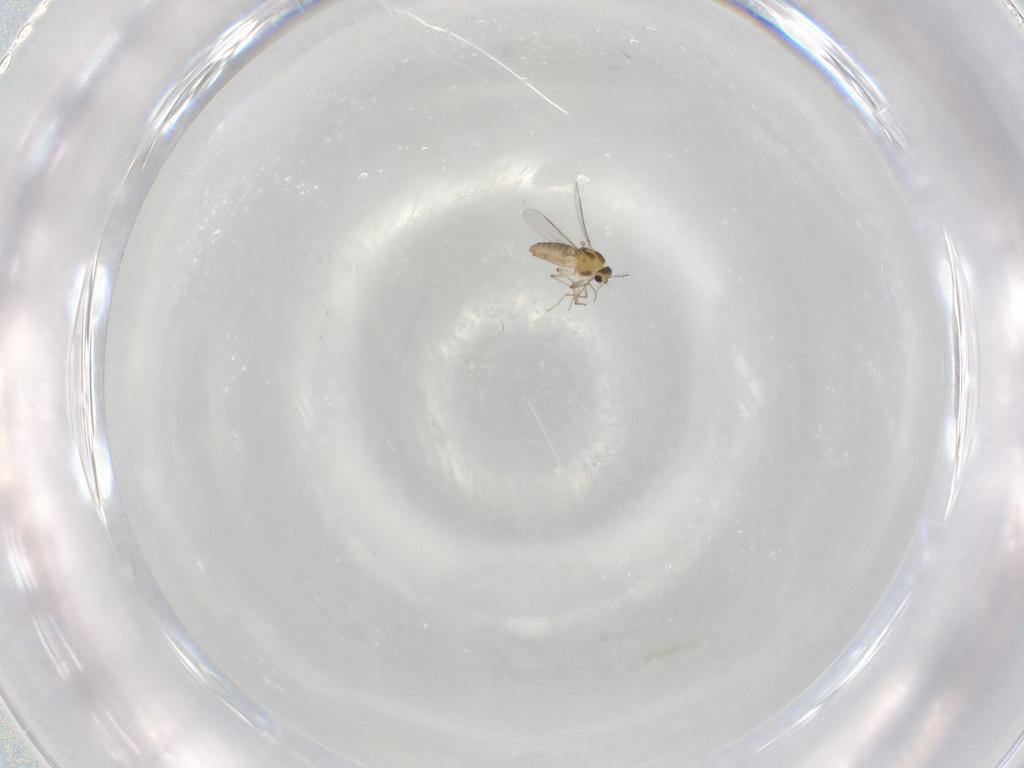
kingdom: Animalia
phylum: Arthropoda
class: Insecta
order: Diptera
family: Chironomidae
